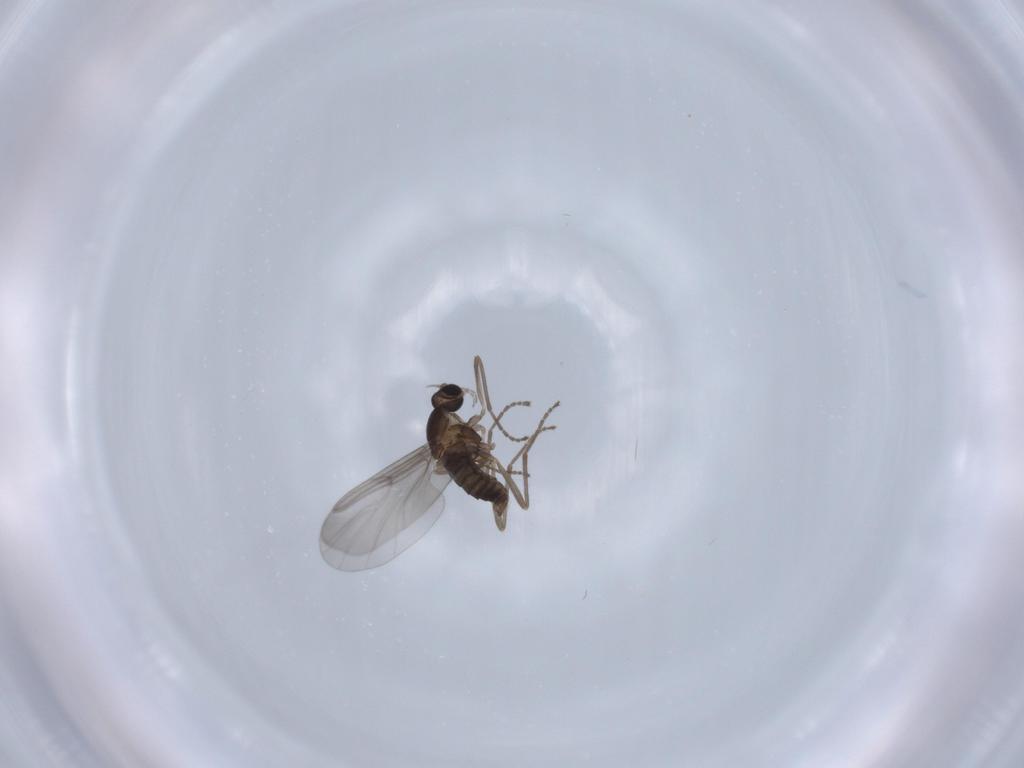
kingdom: Animalia
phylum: Arthropoda
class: Insecta
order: Diptera
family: Cecidomyiidae
